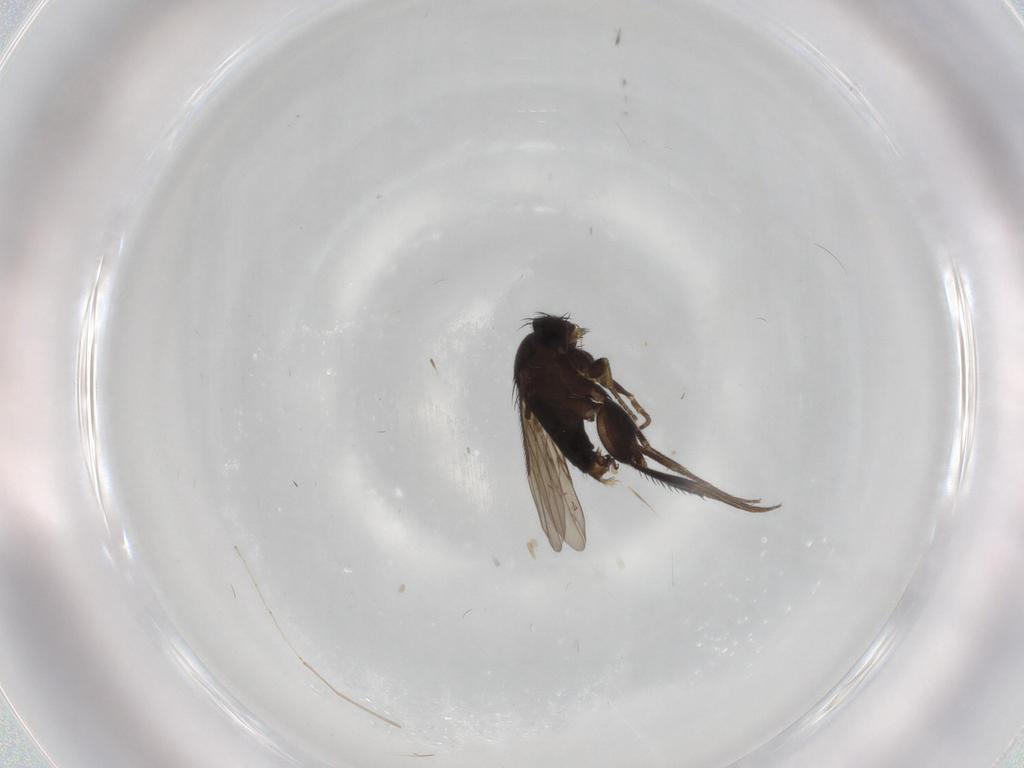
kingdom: Animalia
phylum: Arthropoda
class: Insecta
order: Diptera
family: Phoridae
